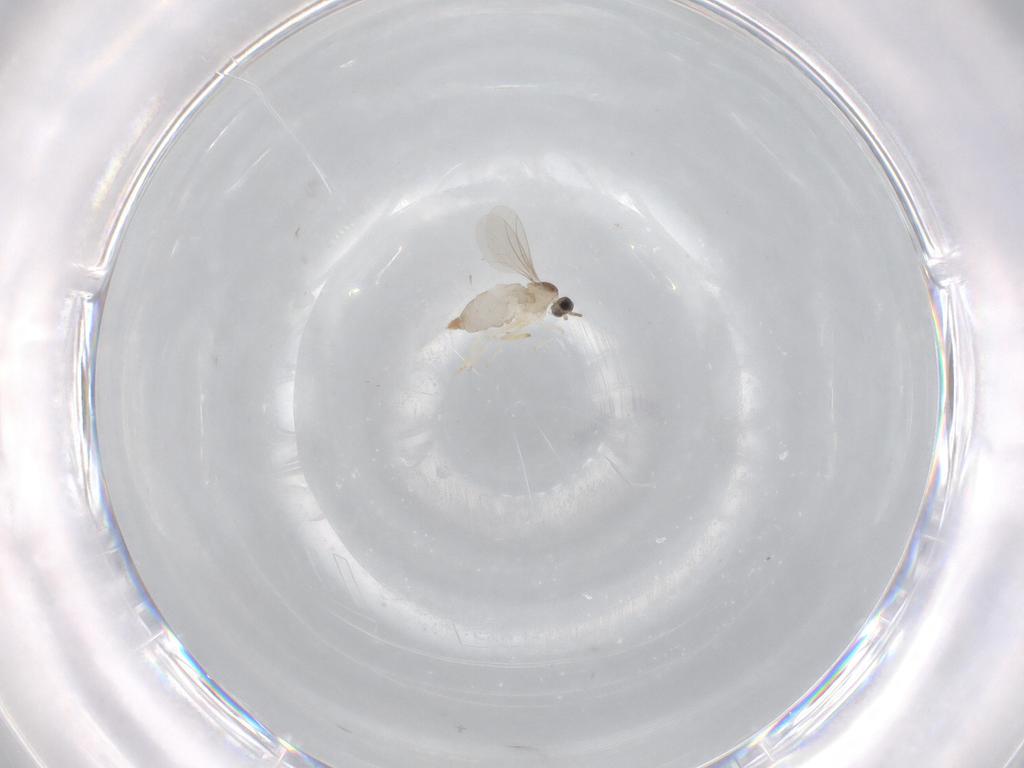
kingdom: Animalia
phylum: Arthropoda
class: Insecta
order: Diptera
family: Cecidomyiidae
